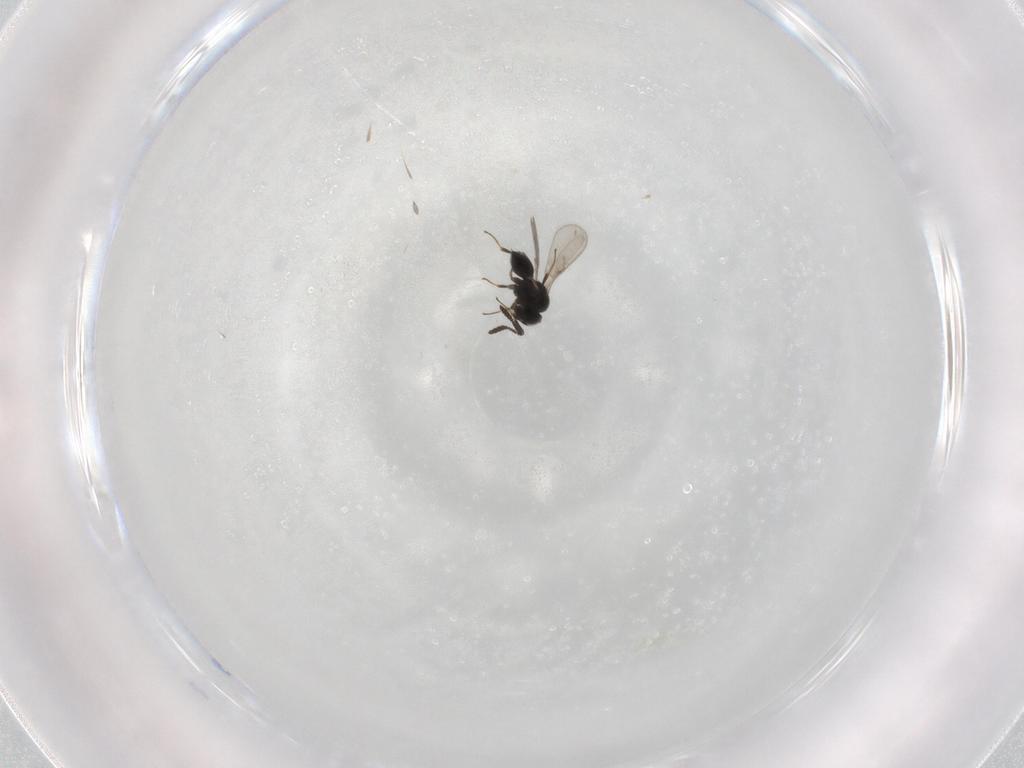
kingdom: Animalia
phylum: Arthropoda
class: Insecta
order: Hymenoptera
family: Scelionidae
